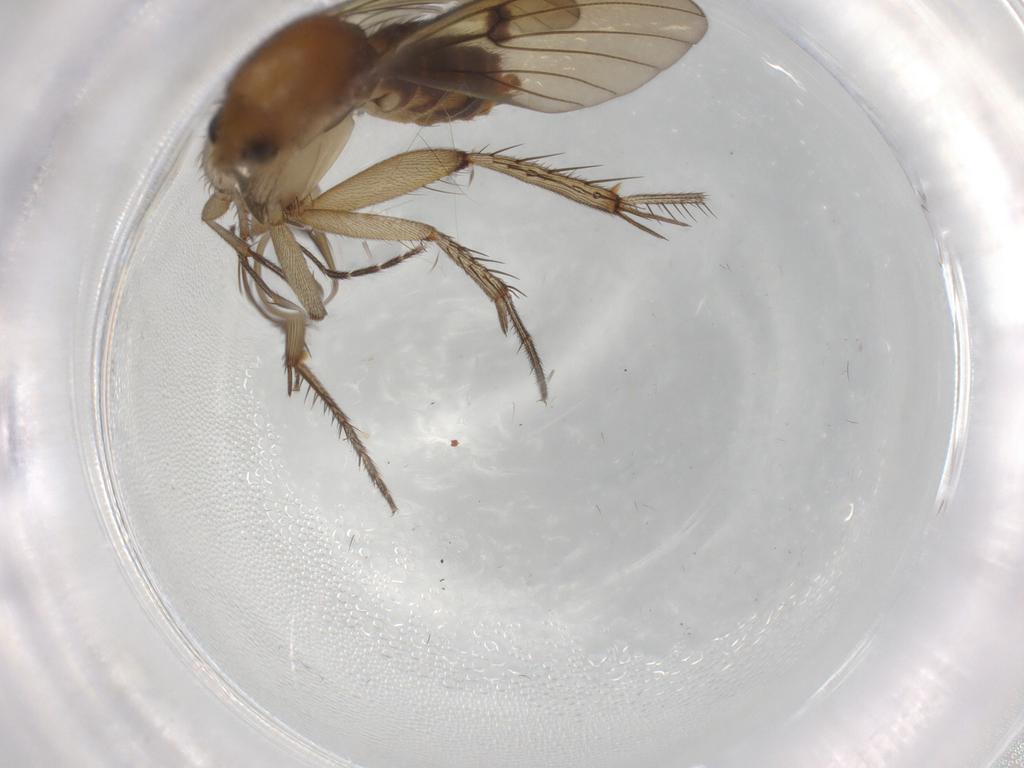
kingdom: Animalia
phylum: Arthropoda
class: Insecta
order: Diptera
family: Mycetophilidae
